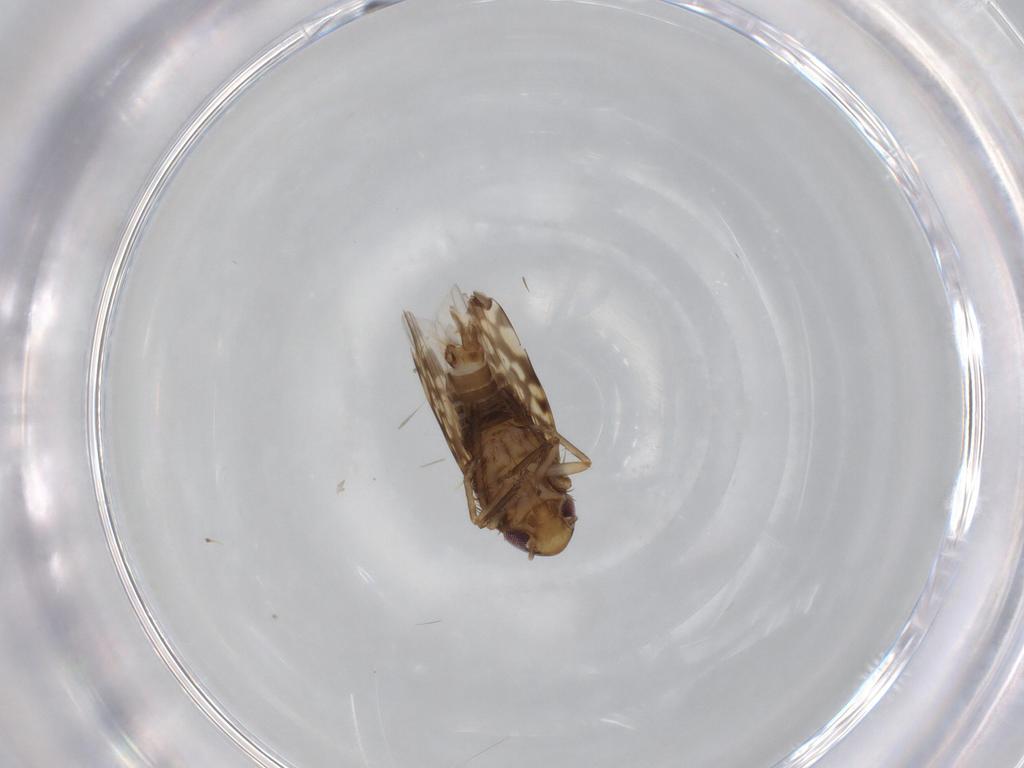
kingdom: Animalia
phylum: Arthropoda
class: Insecta
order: Hemiptera
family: Cicadellidae
